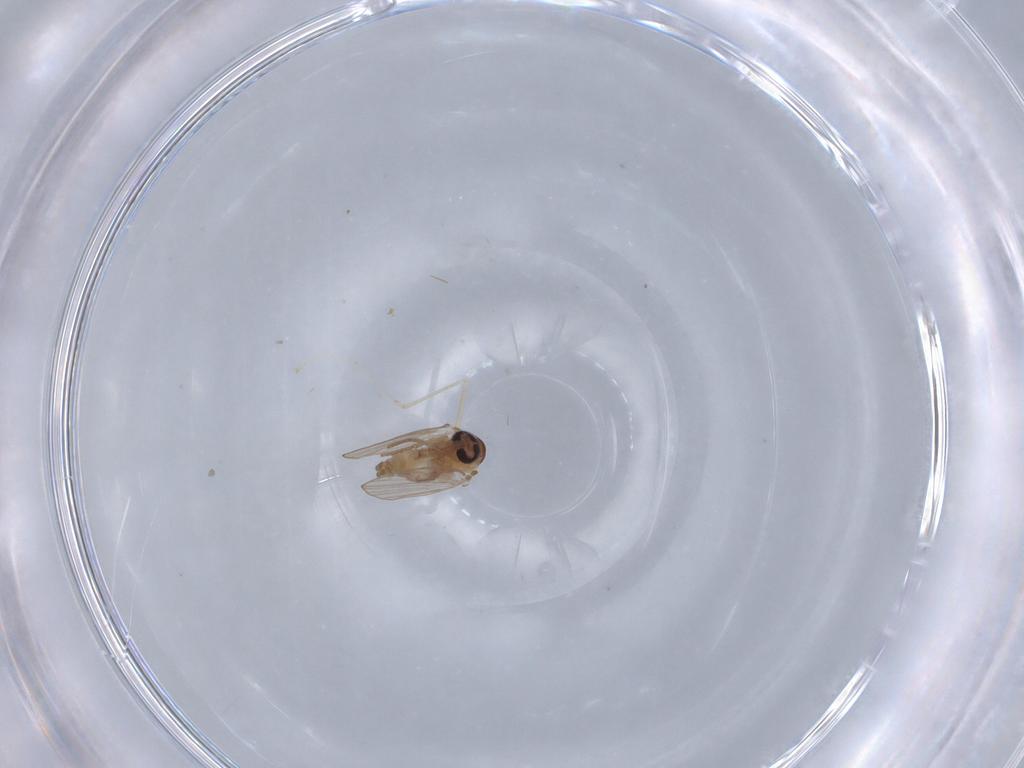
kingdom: Animalia
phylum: Arthropoda
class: Insecta
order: Diptera
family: Cecidomyiidae
